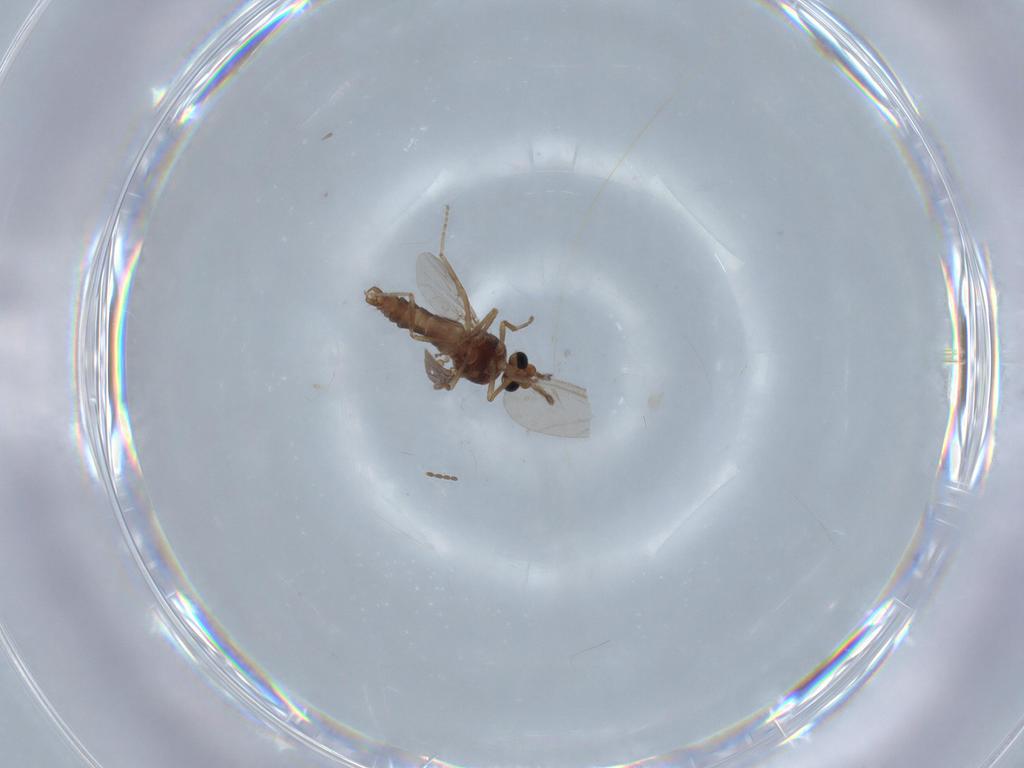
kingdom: Animalia
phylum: Arthropoda
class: Insecta
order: Diptera
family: Ceratopogonidae
